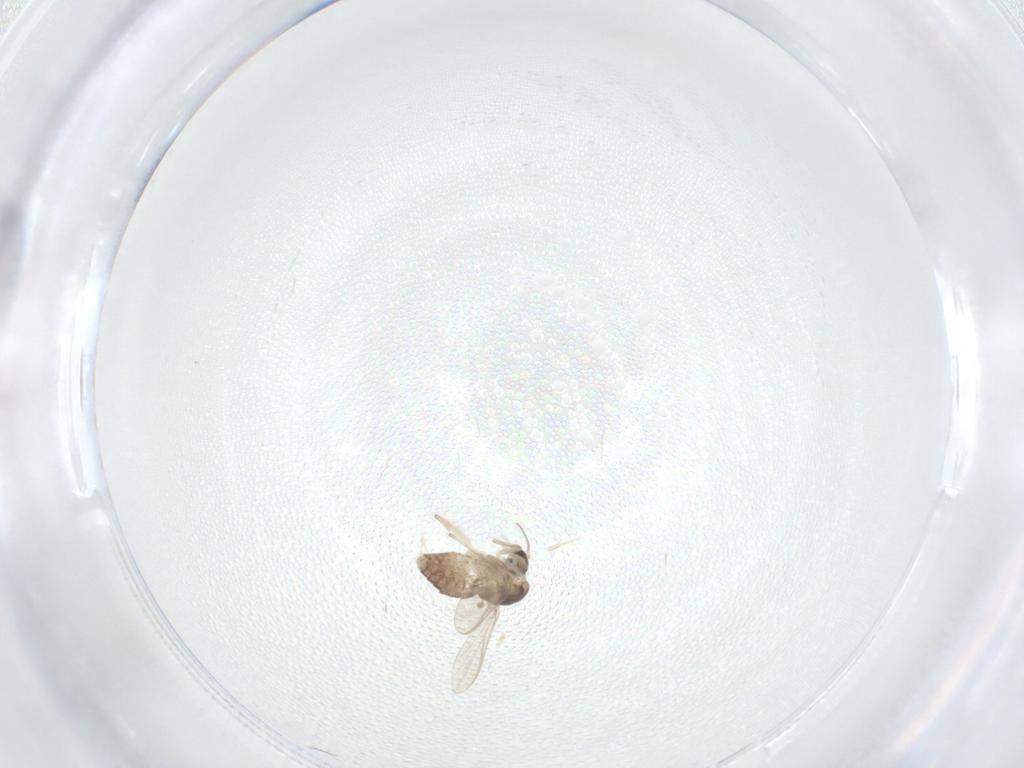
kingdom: Animalia
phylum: Arthropoda
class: Insecta
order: Diptera
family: Chironomidae
